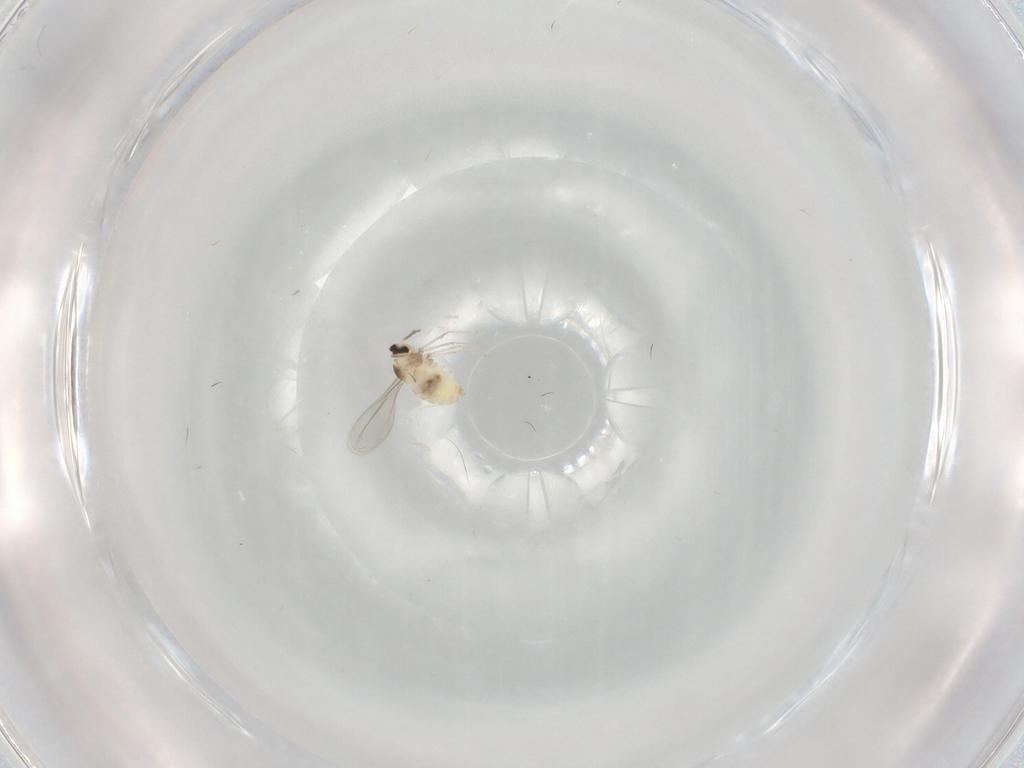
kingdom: Animalia
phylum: Arthropoda
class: Insecta
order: Diptera
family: Cecidomyiidae
